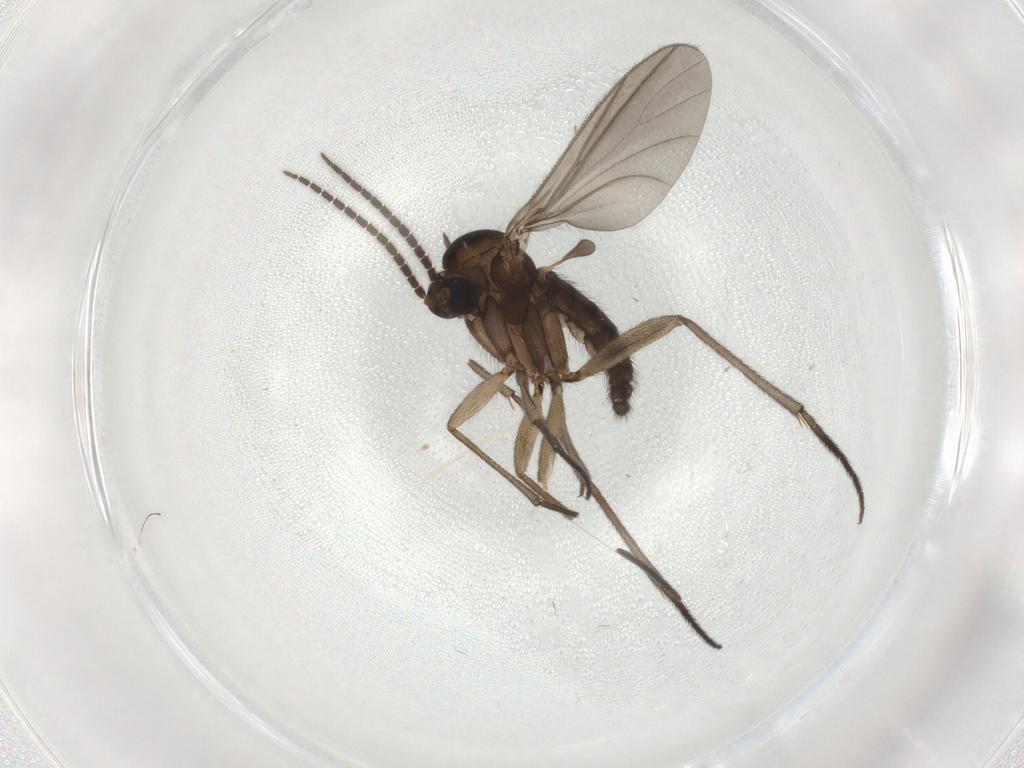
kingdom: Animalia
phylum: Arthropoda
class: Insecta
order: Diptera
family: Sciaridae
